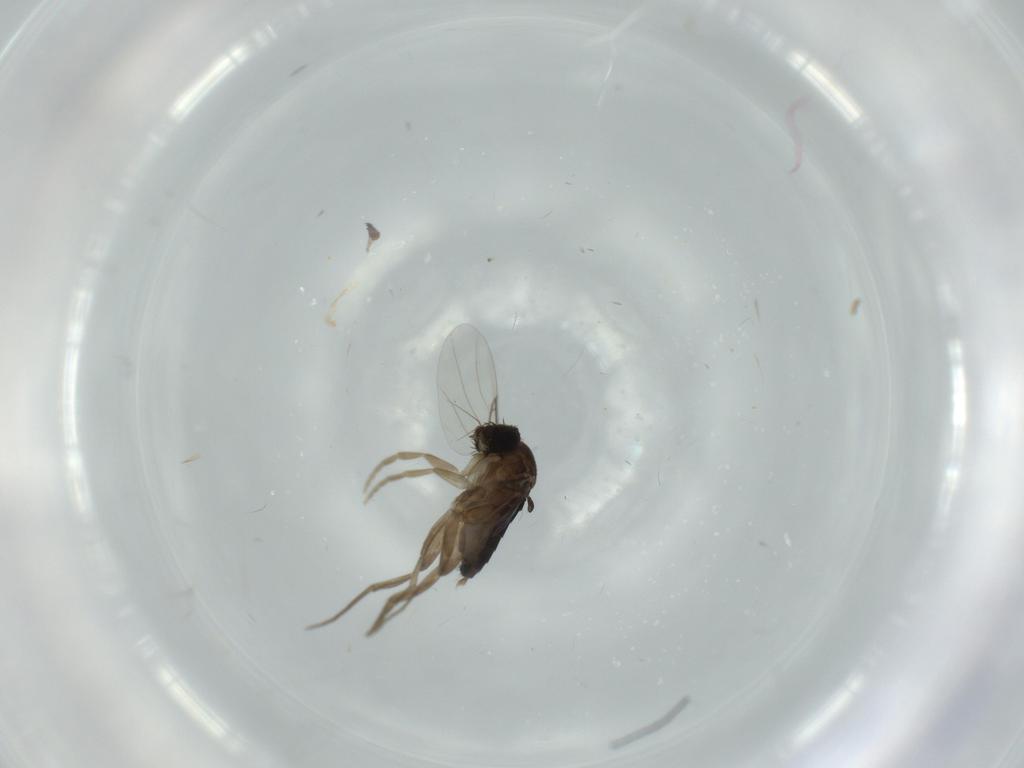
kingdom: Animalia
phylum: Arthropoda
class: Insecta
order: Diptera
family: Phoridae
